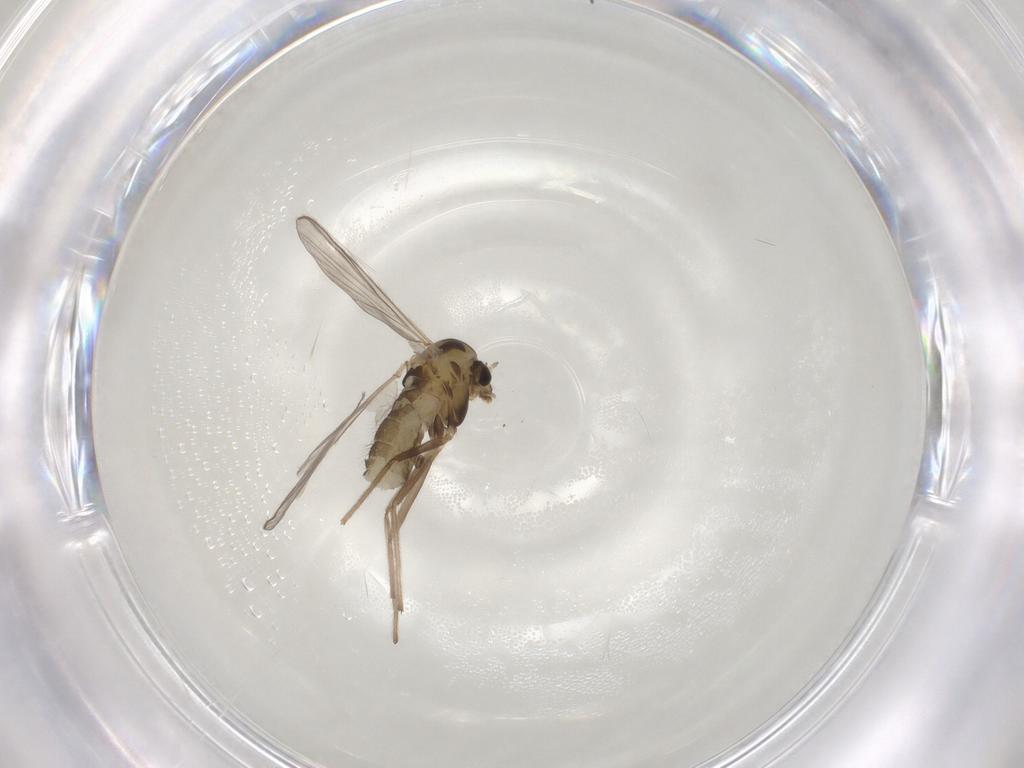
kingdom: Animalia
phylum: Arthropoda
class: Insecta
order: Diptera
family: Chironomidae
